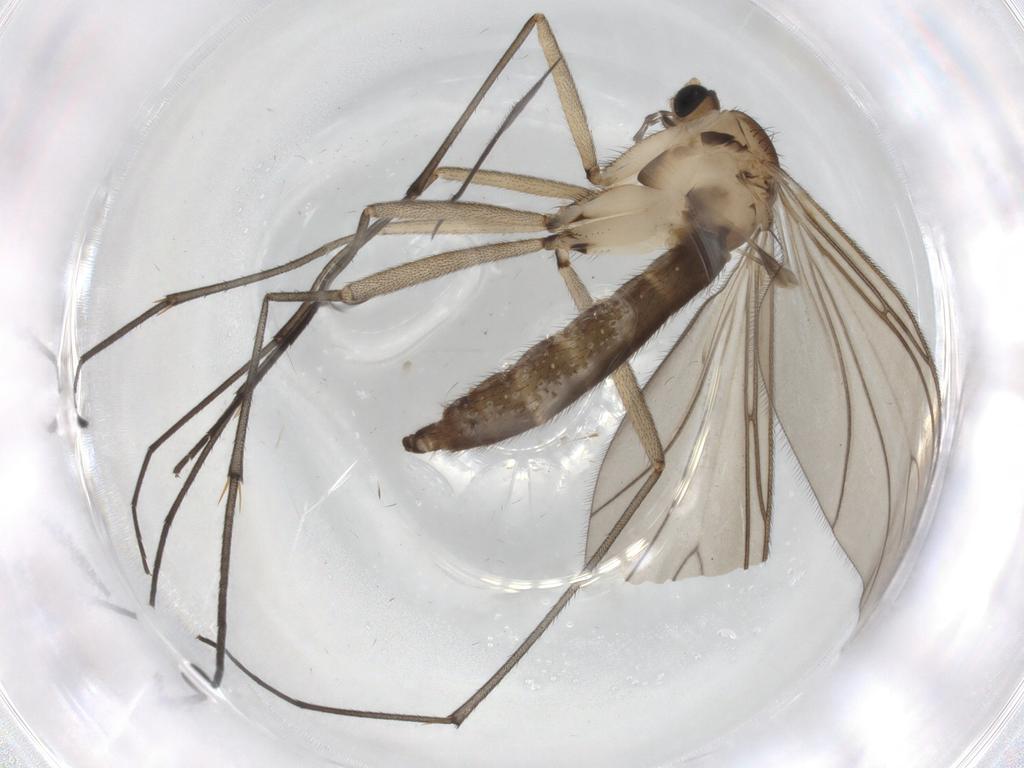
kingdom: Animalia
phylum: Arthropoda
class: Insecta
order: Diptera
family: Sciaridae
